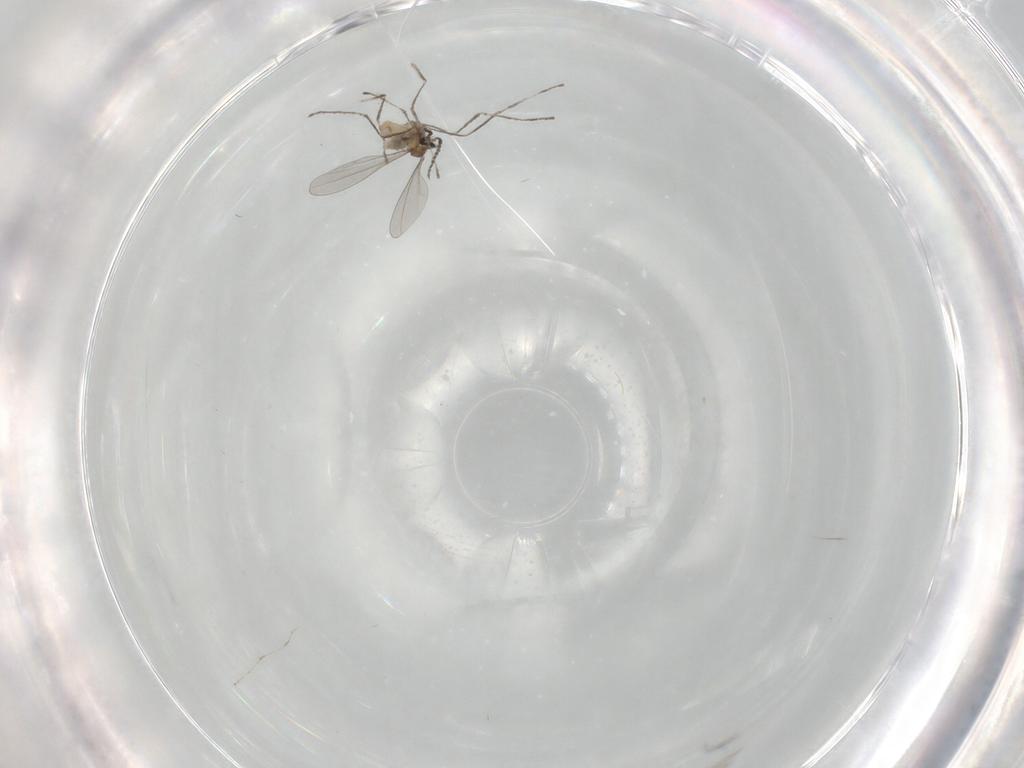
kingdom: Animalia
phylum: Arthropoda
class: Insecta
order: Diptera
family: Cecidomyiidae
